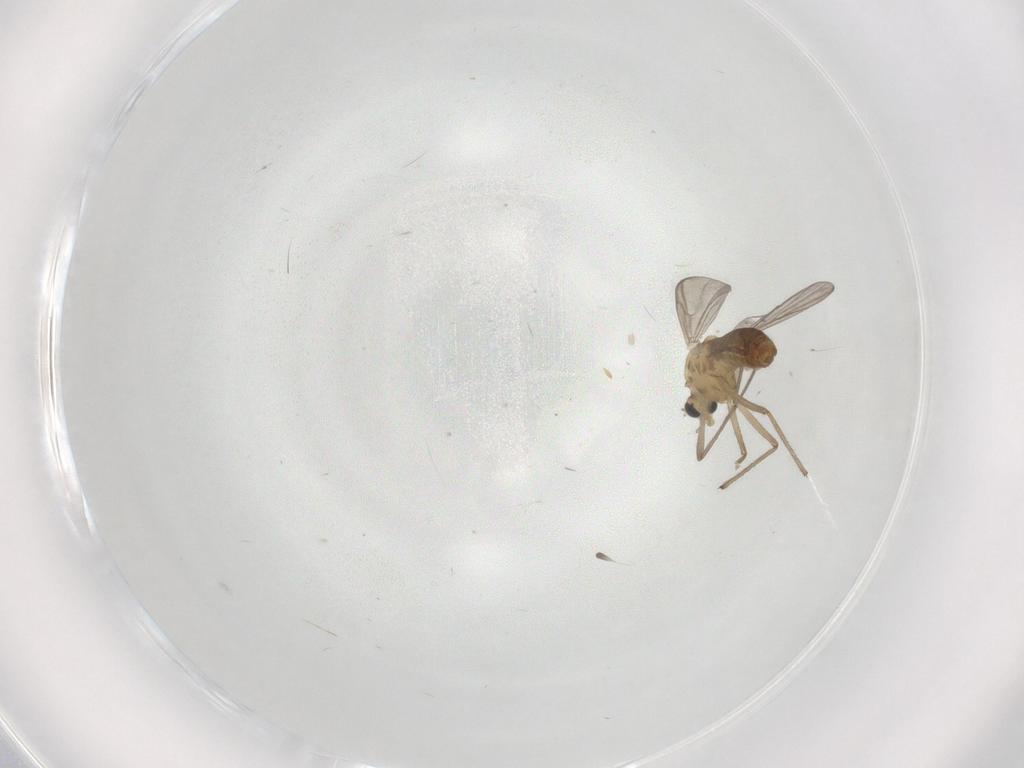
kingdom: Animalia
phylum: Arthropoda
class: Insecta
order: Diptera
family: Chironomidae
